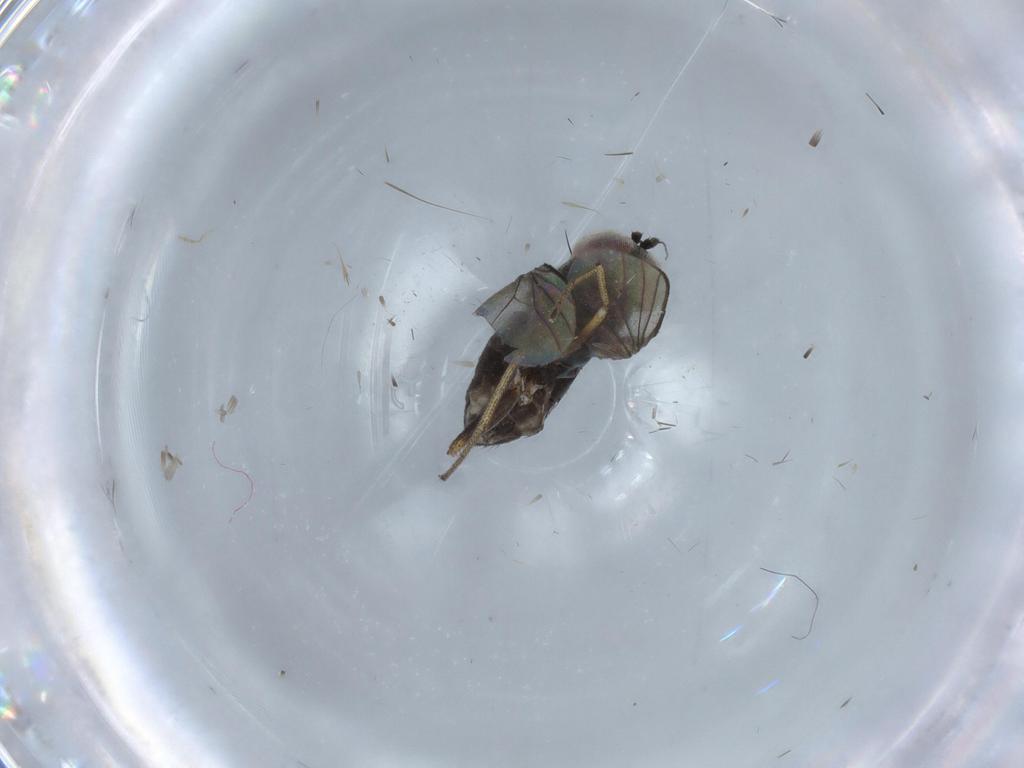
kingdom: Animalia
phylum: Arthropoda
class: Insecta
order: Diptera
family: Dolichopodidae
